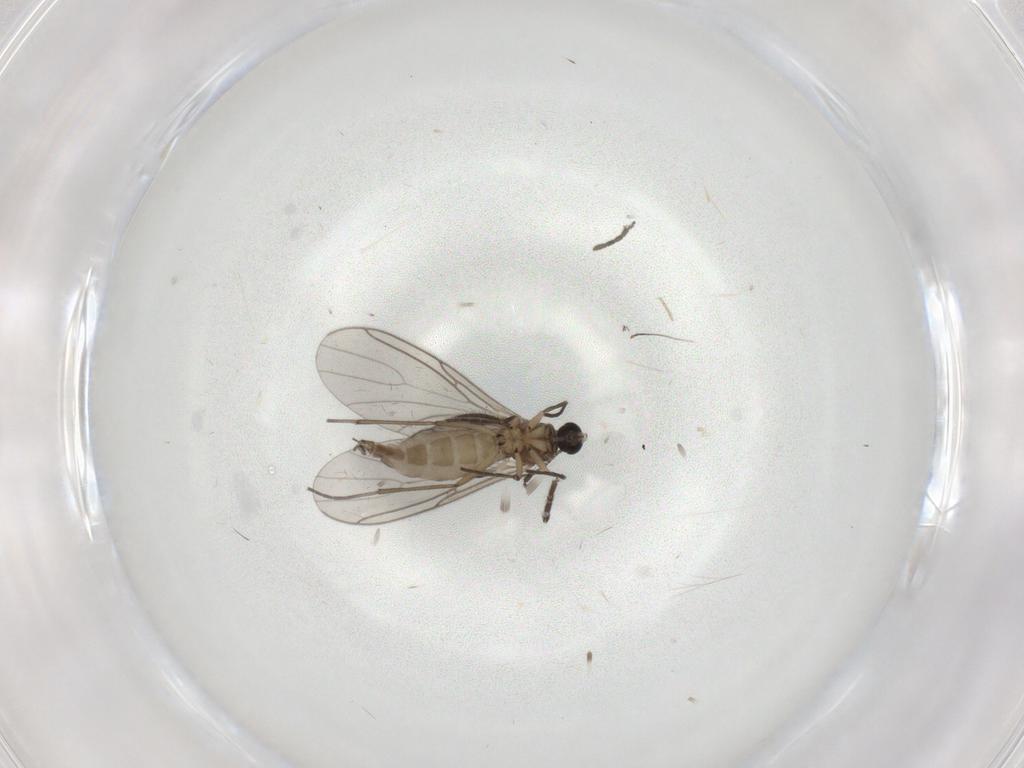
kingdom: Animalia
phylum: Arthropoda
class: Insecta
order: Diptera
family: Sciaridae
